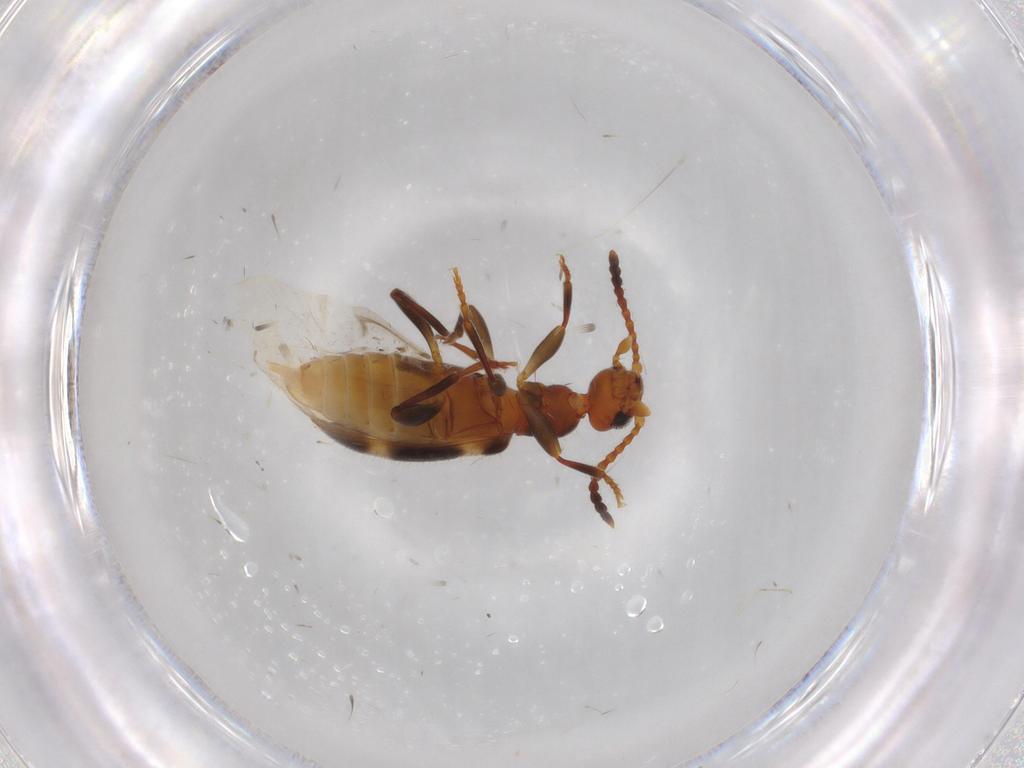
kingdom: Animalia
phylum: Arthropoda
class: Insecta
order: Coleoptera
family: Anthicidae
